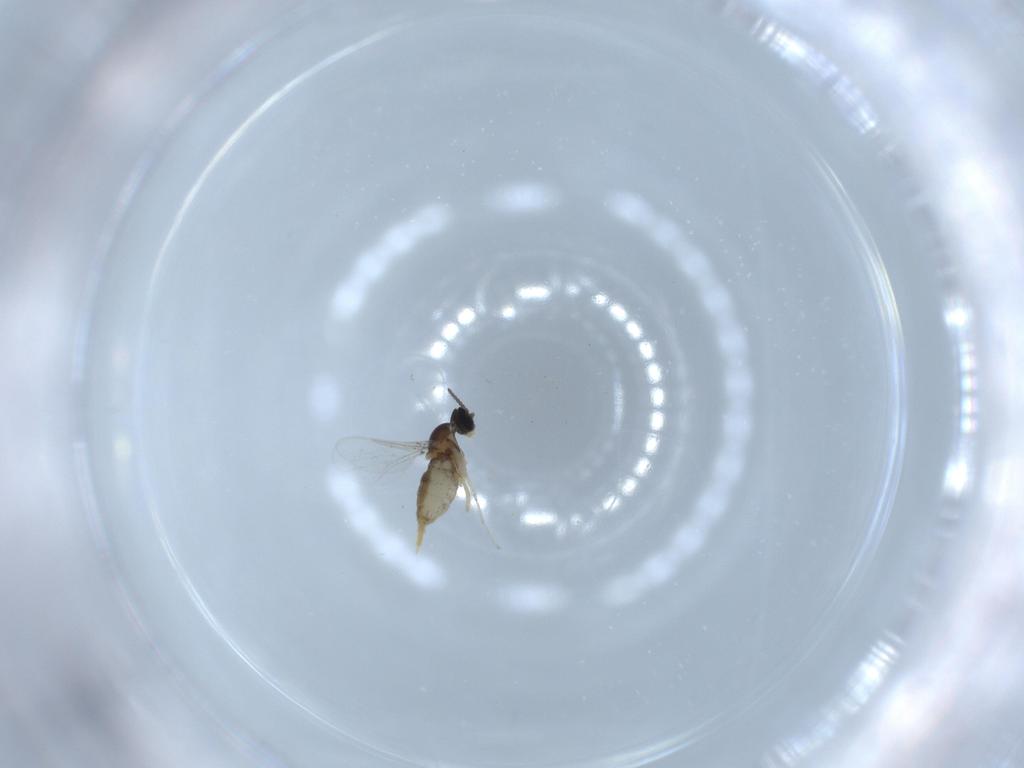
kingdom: Animalia
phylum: Arthropoda
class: Insecta
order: Diptera
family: Cecidomyiidae
